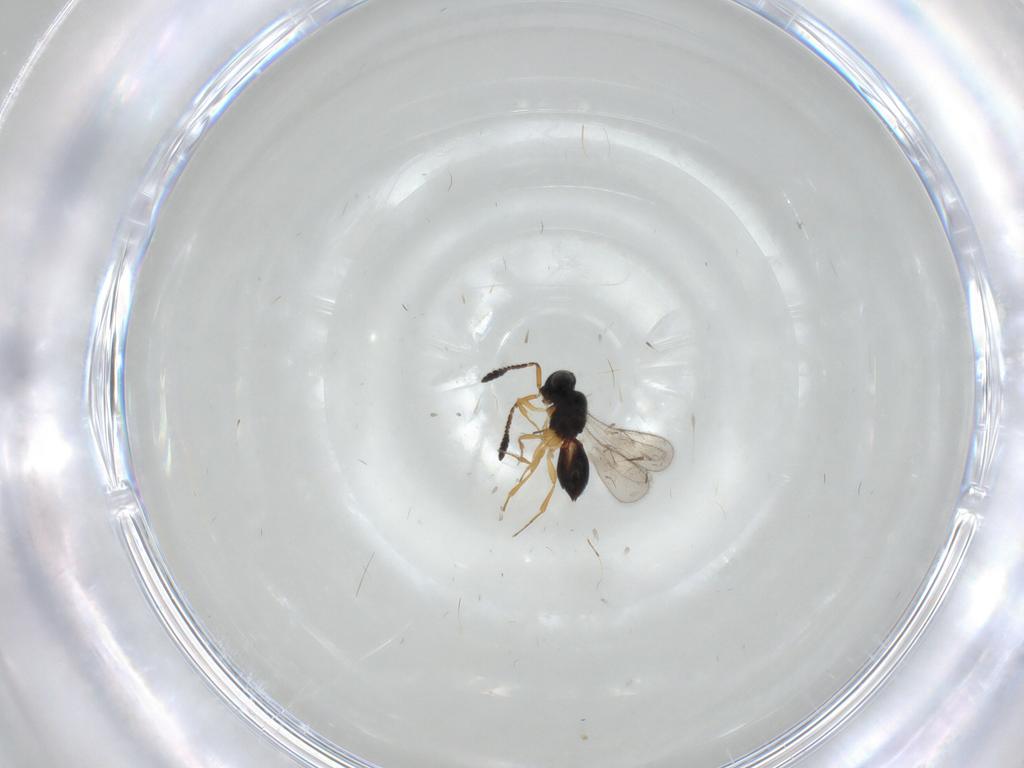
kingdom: Animalia
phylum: Arthropoda
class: Insecta
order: Hymenoptera
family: Scelionidae
